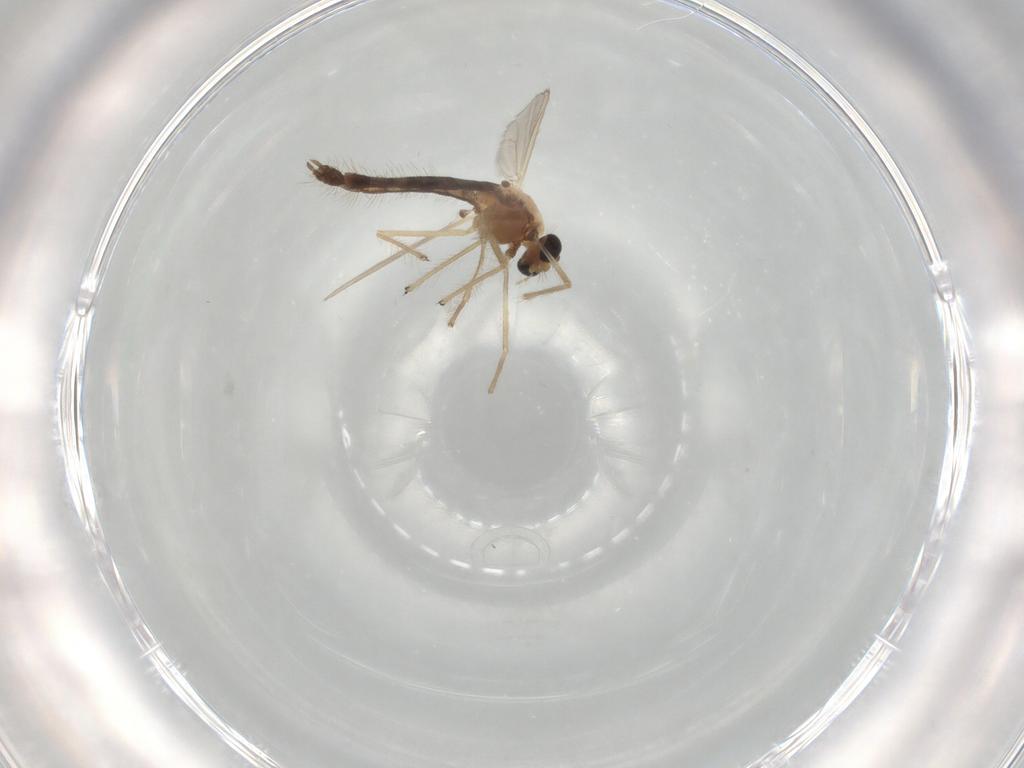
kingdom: Animalia
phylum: Arthropoda
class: Insecta
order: Diptera
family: Chironomidae
